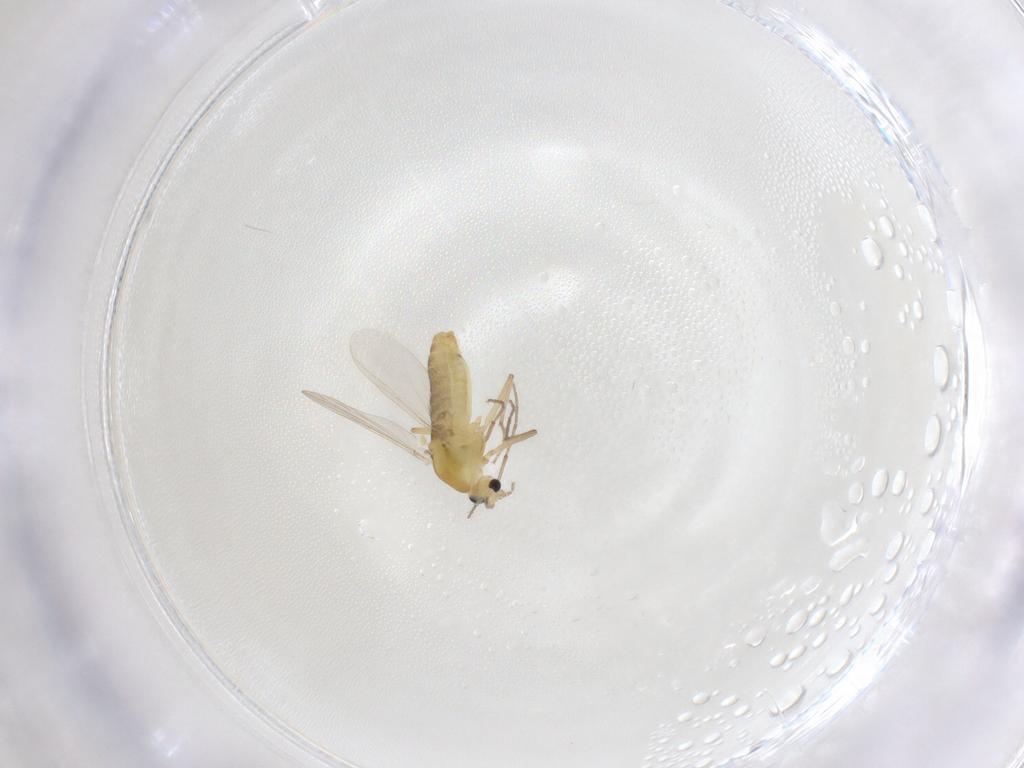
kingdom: Animalia
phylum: Arthropoda
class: Insecta
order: Diptera
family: Chironomidae
